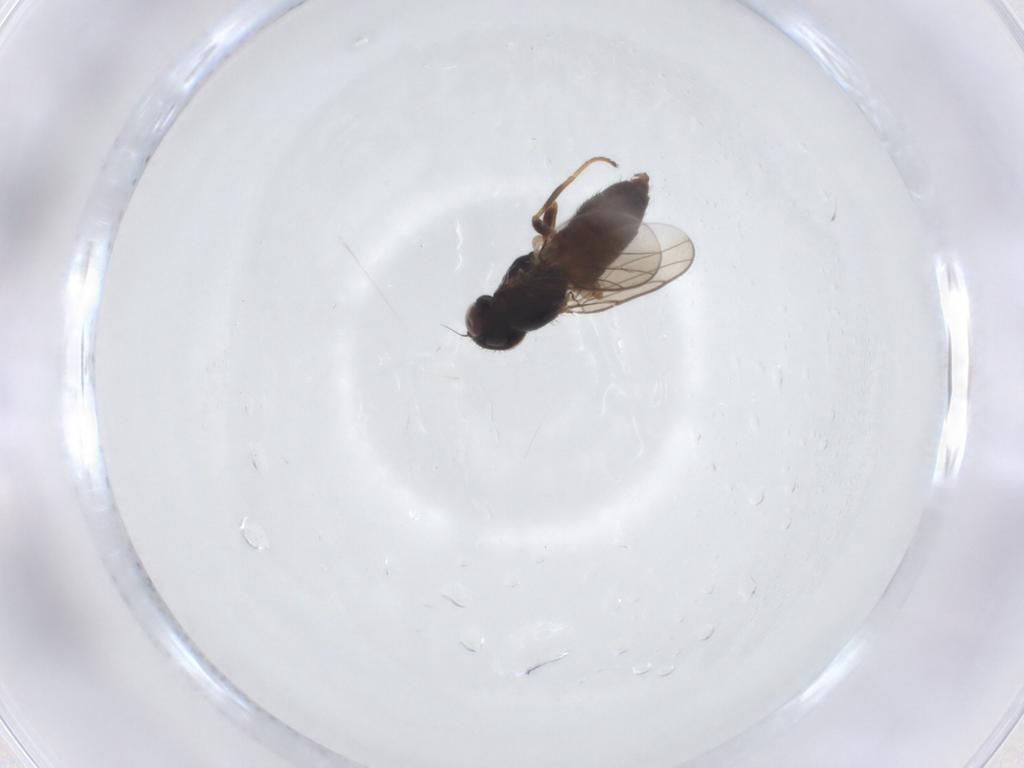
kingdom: Animalia
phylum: Arthropoda
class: Insecta
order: Diptera
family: Chloropidae
